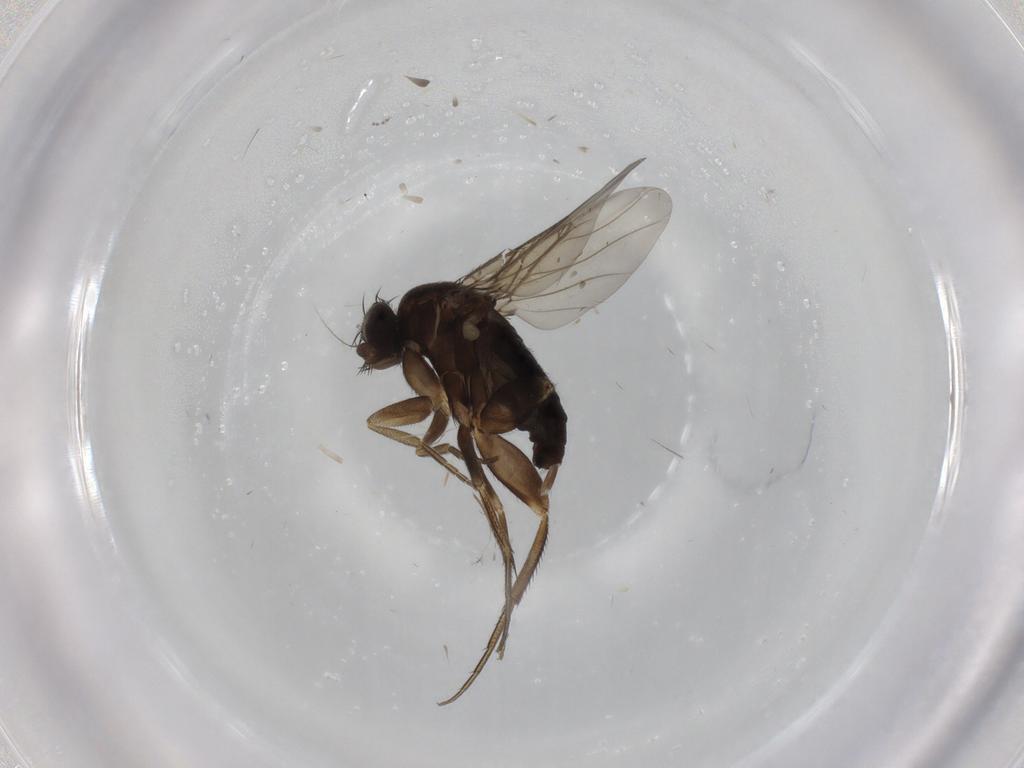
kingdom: Animalia
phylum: Arthropoda
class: Insecta
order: Diptera
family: Phoridae
